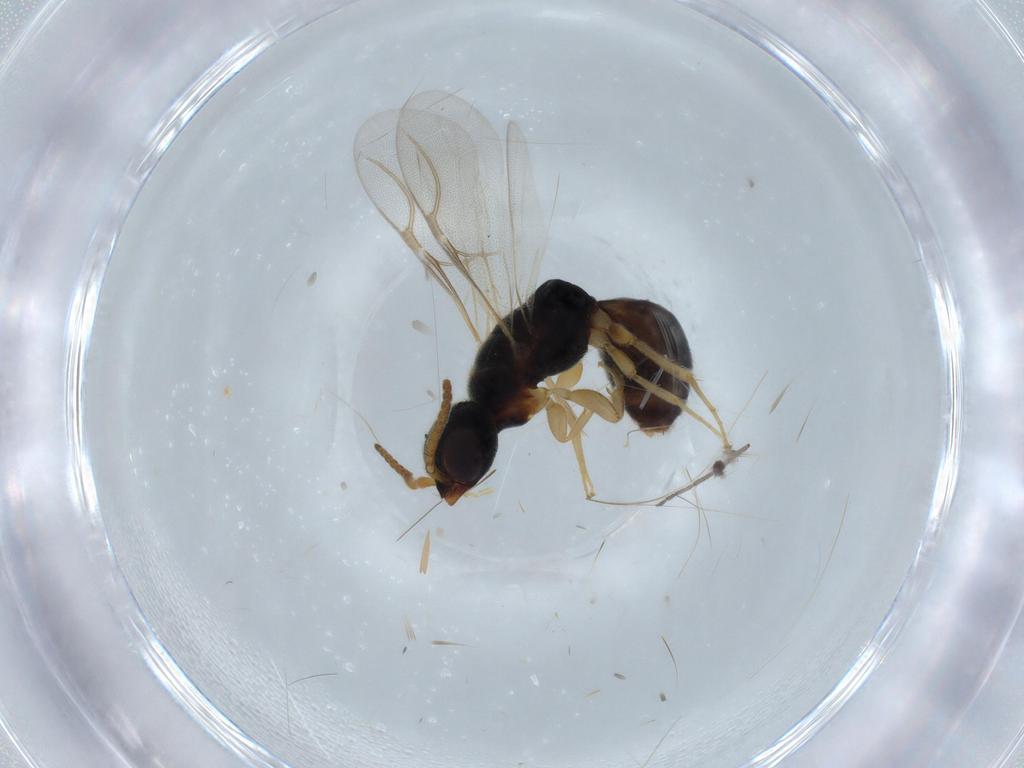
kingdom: Animalia
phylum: Arthropoda
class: Insecta
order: Hymenoptera
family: Bethylidae
